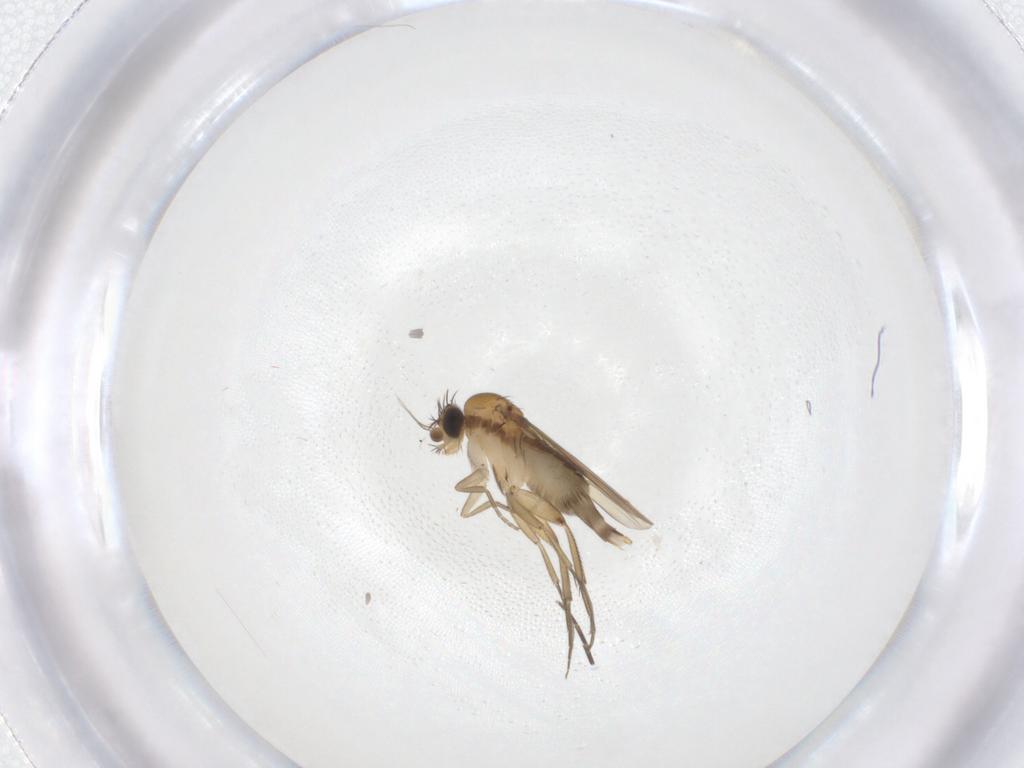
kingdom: Animalia
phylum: Arthropoda
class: Insecta
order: Diptera
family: Phoridae
